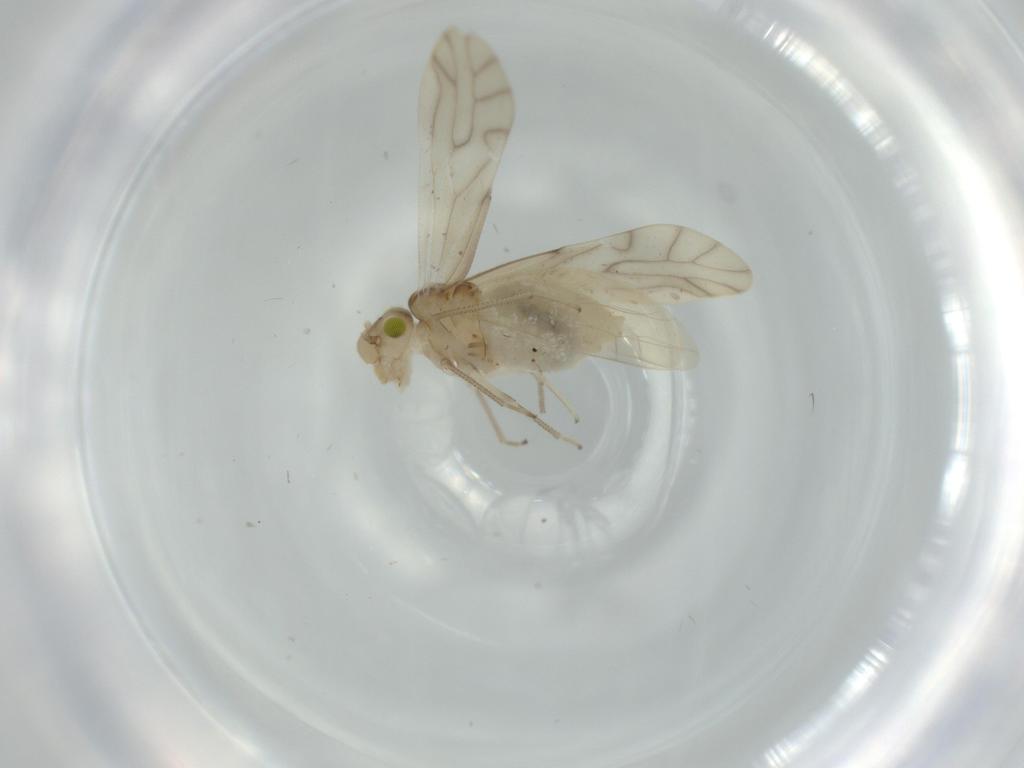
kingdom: Animalia
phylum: Arthropoda
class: Insecta
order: Psocodea
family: Caeciliusidae
